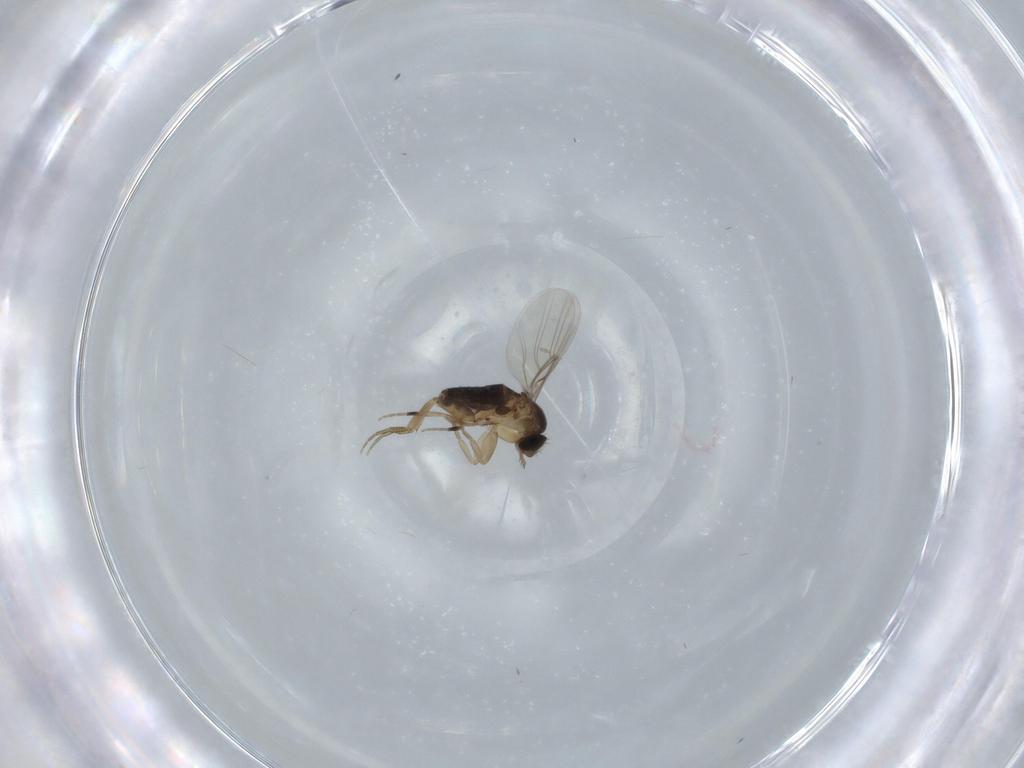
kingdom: Animalia
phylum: Arthropoda
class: Insecta
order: Diptera
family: Phoridae
